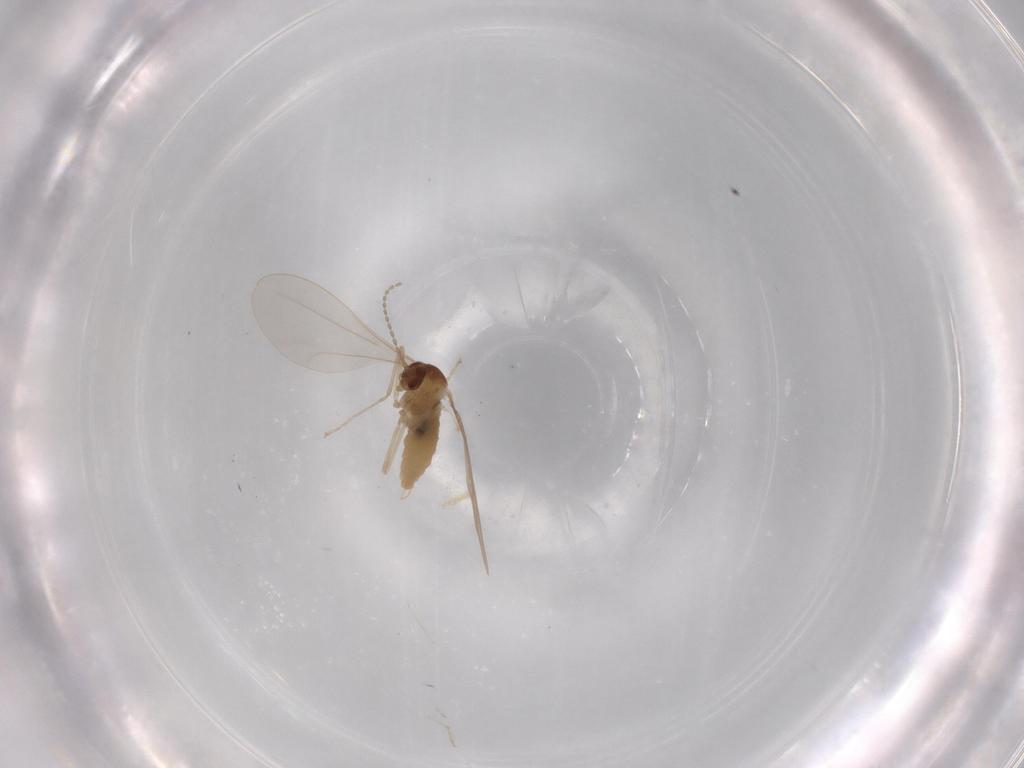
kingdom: Animalia
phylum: Arthropoda
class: Insecta
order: Diptera
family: Cecidomyiidae
